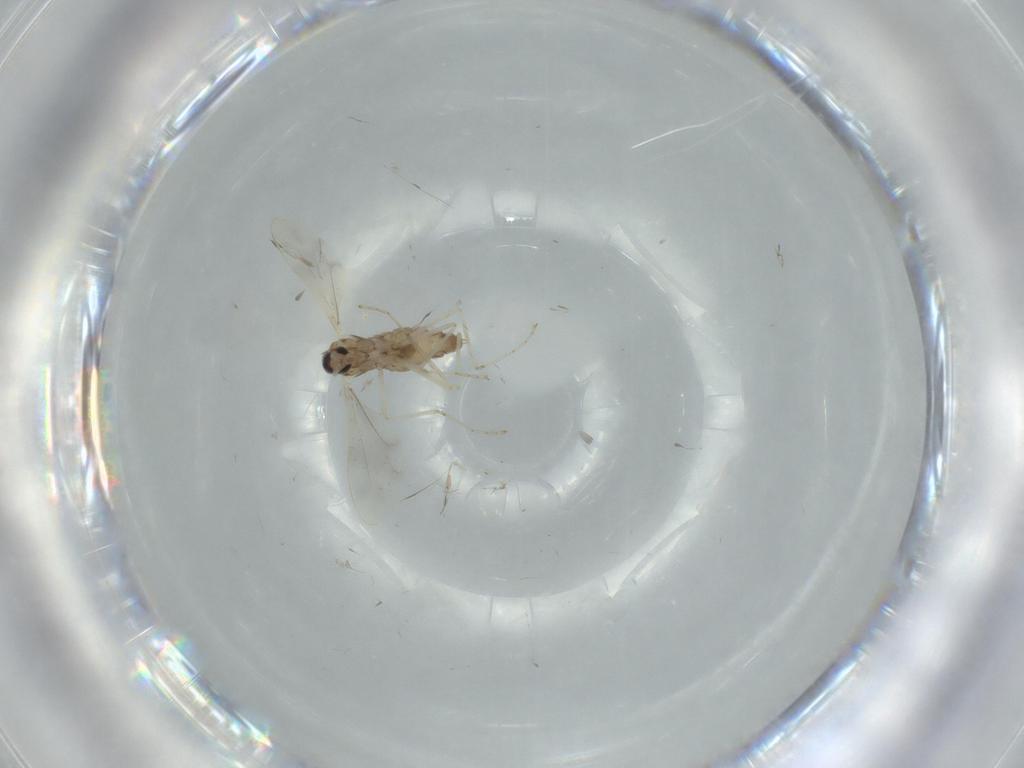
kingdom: Animalia
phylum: Arthropoda
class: Insecta
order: Diptera
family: Cecidomyiidae
